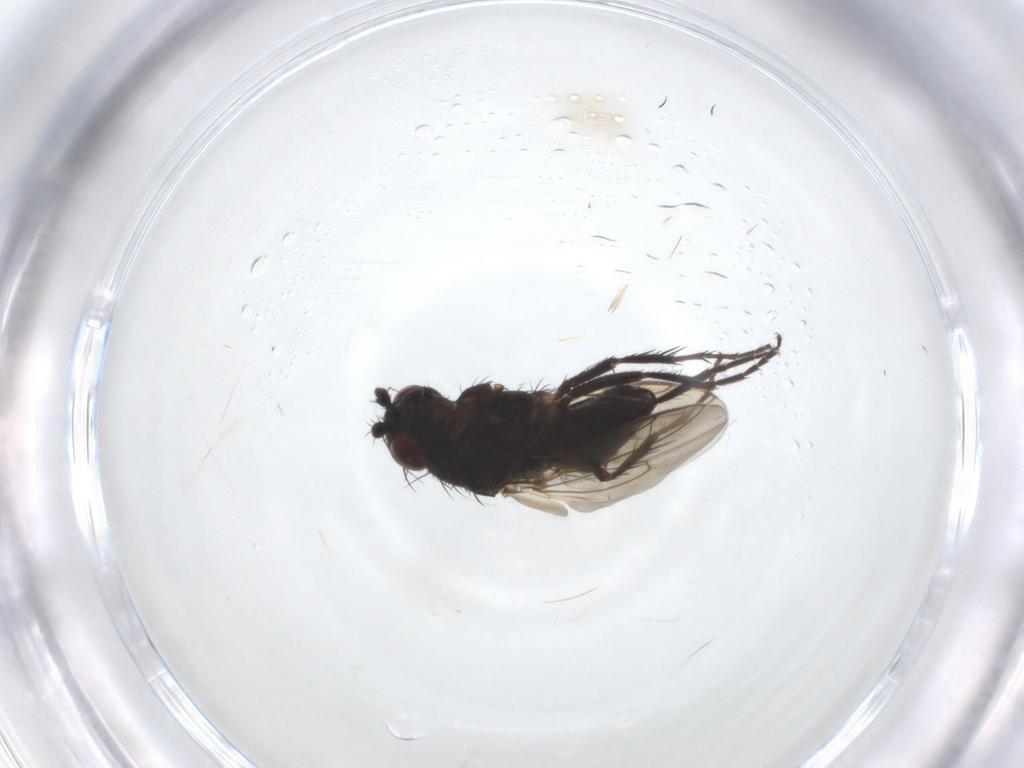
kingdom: Animalia
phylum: Arthropoda
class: Insecta
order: Diptera
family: Sphaeroceridae
